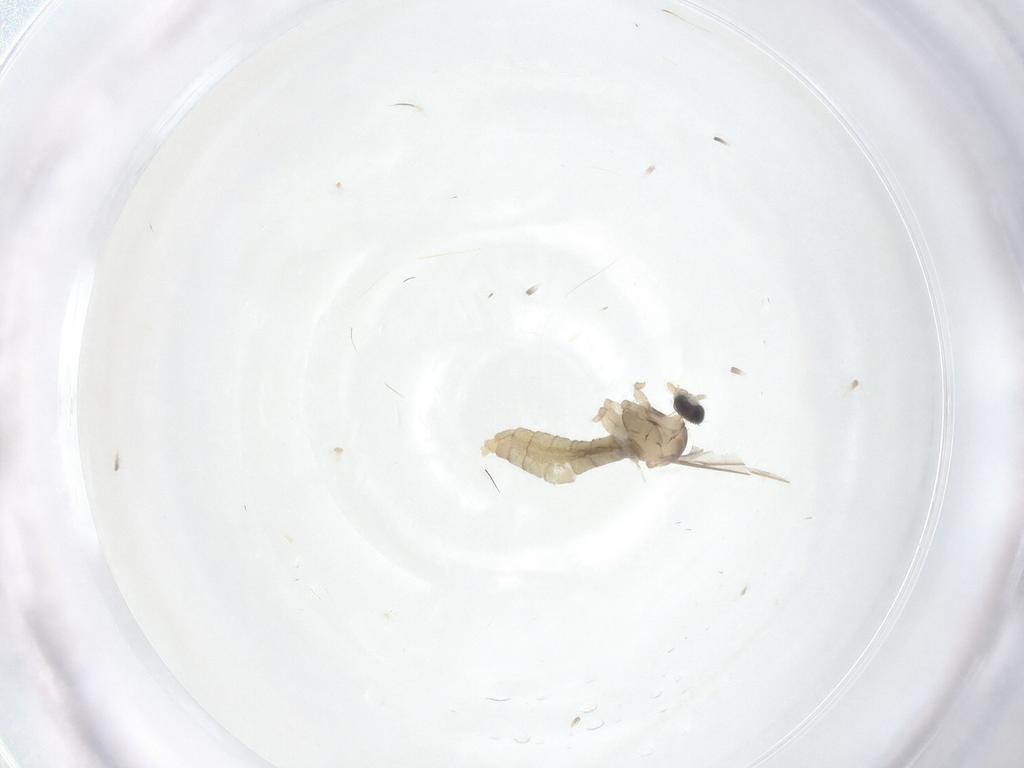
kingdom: Animalia
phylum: Arthropoda
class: Insecta
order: Diptera
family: Cecidomyiidae
